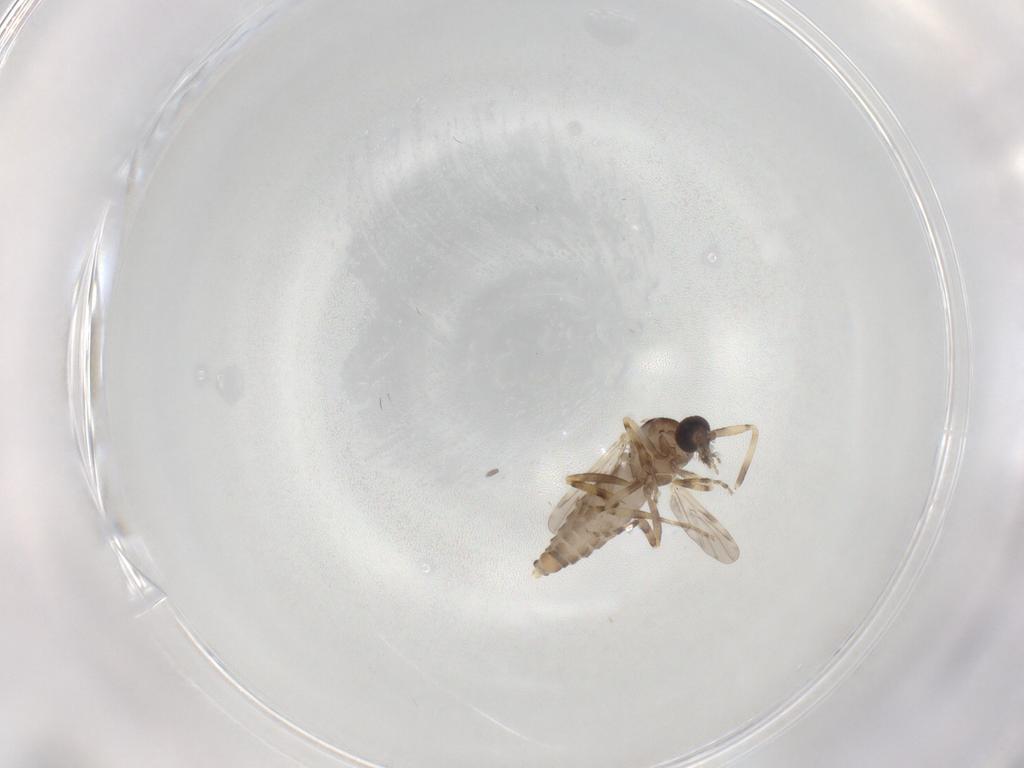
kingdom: Animalia
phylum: Arthropoda
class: Insecta
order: Diptera
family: Ceratopogonidae
